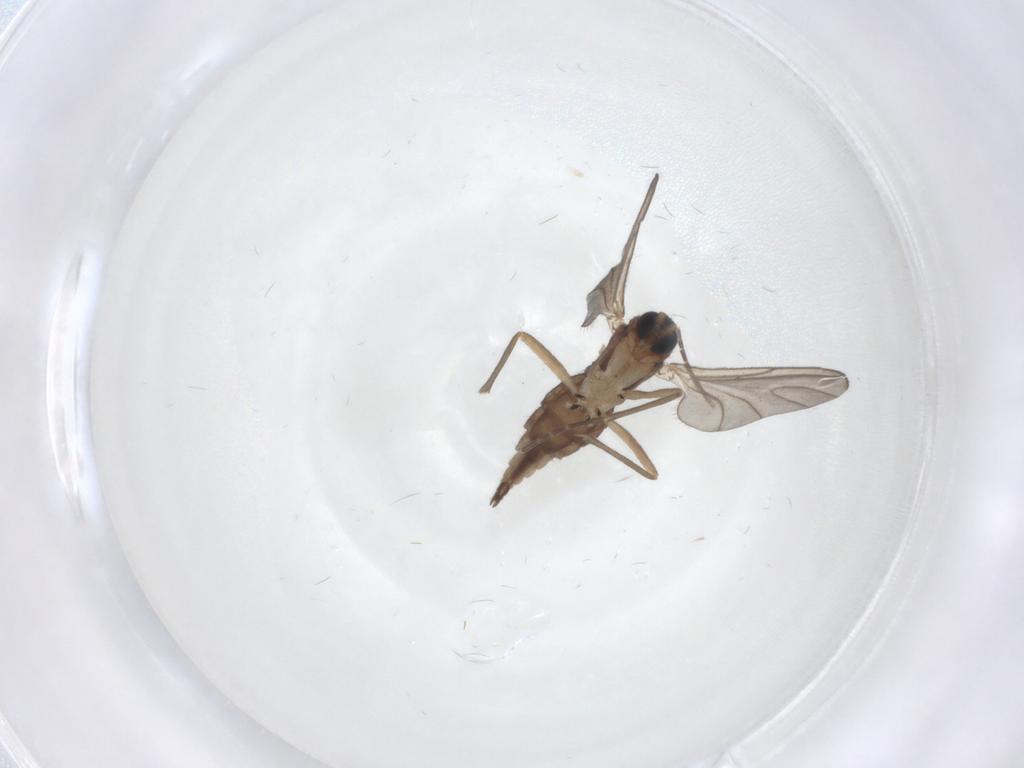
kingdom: Animalia
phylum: Arthropoda
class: Insecta
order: Diptera
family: Sciaridae
